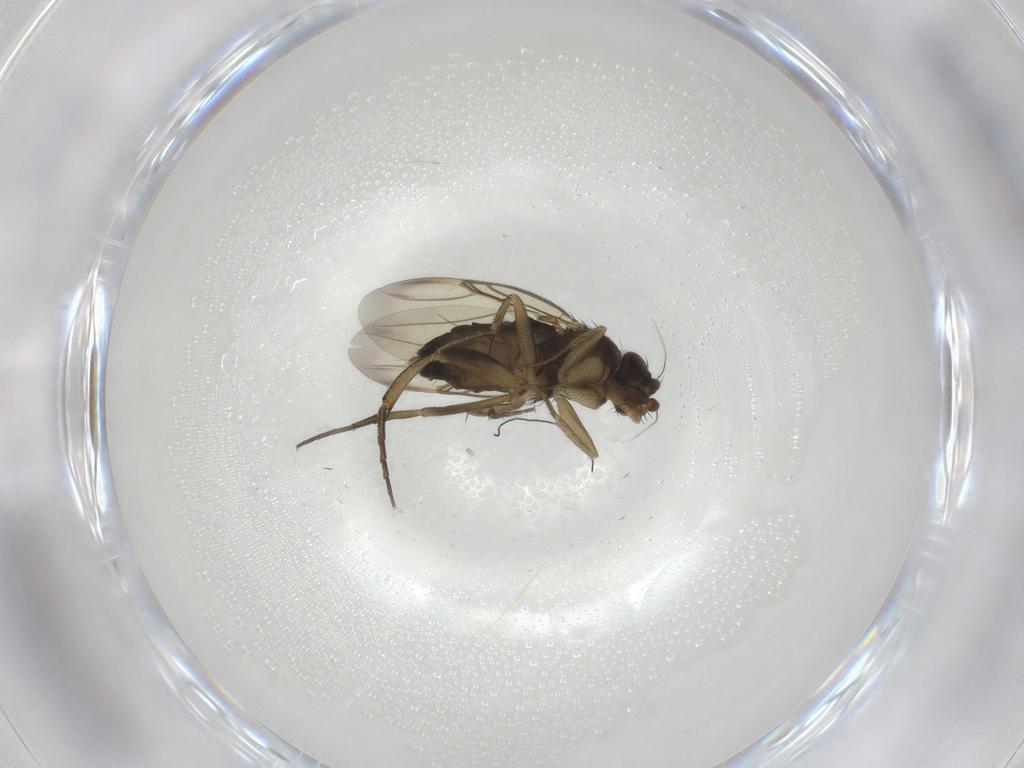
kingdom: Animalia
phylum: Arthropoda
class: Insecta
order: Diptera
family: Phoridae
